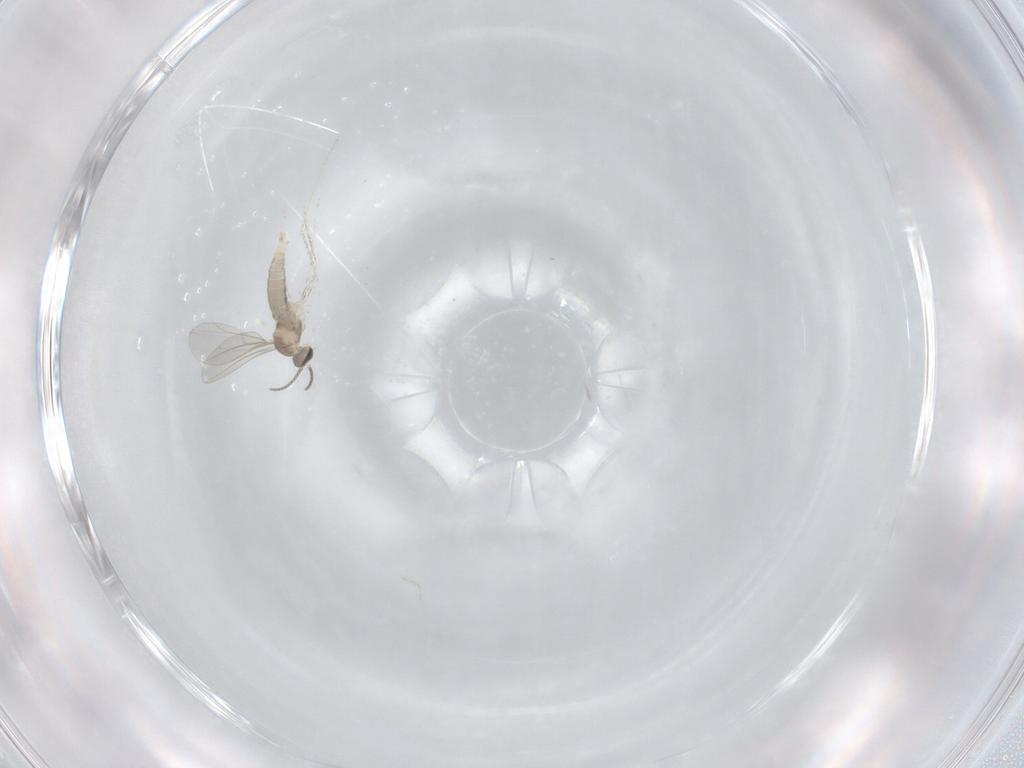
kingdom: Animalia
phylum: Arthropoda
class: Insecta
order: Diptera
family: Cecidomyiidae
